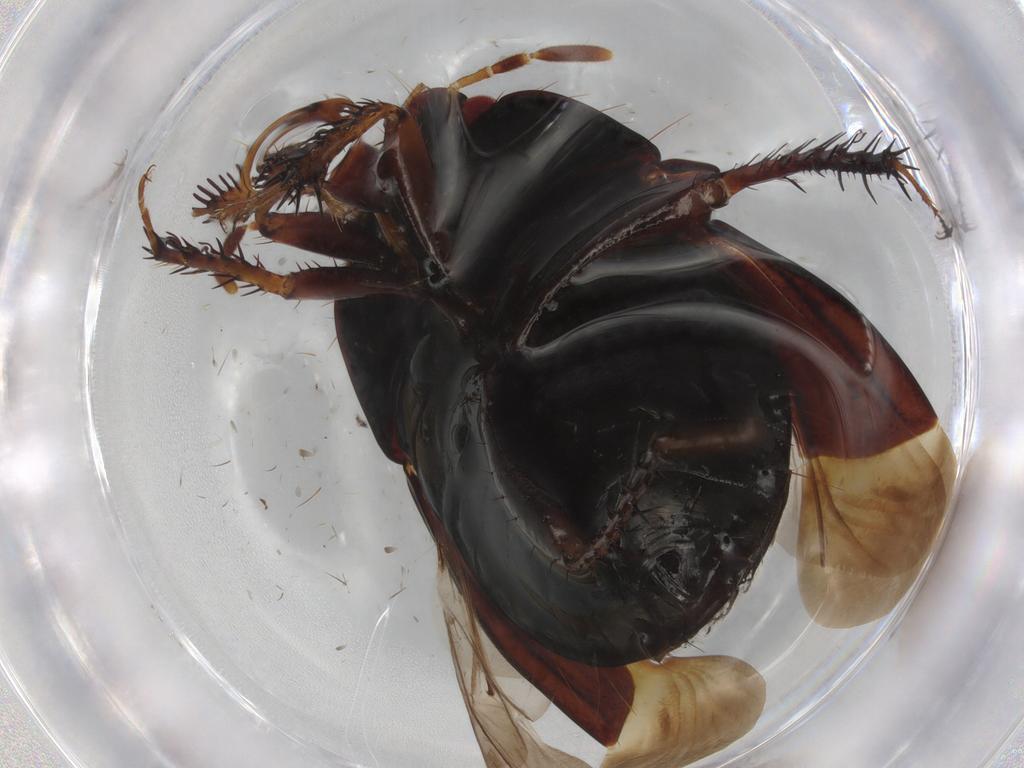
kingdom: Animalia
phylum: Arthropoda
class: Insecta
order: Hemiptera
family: Cydnidae
